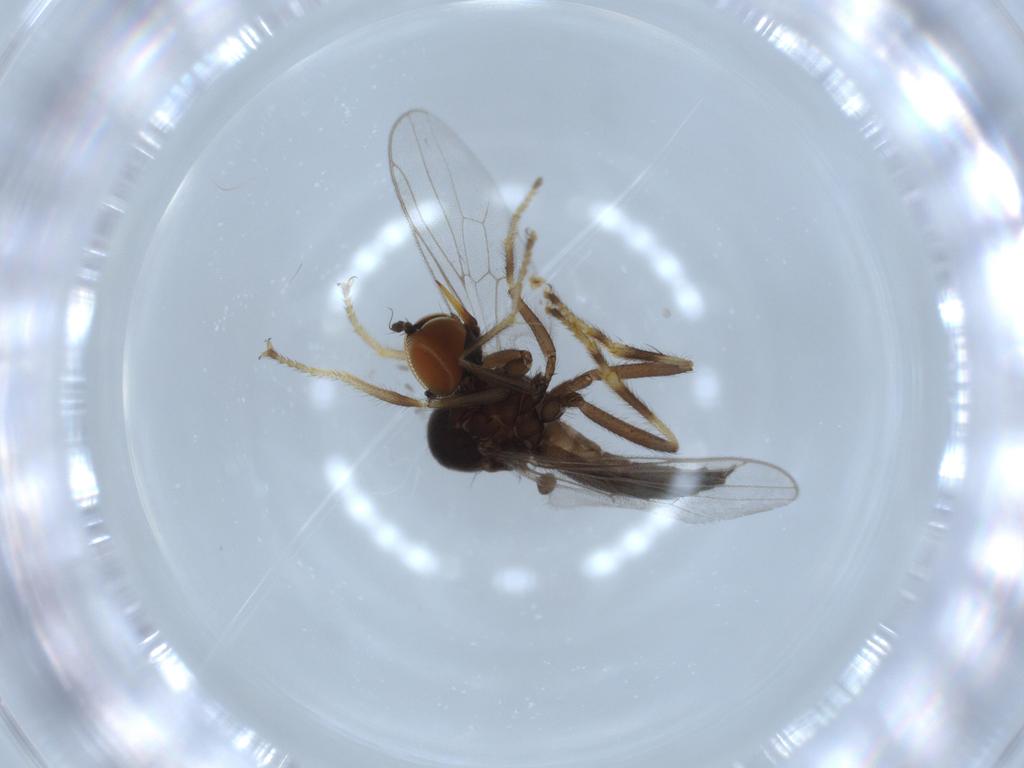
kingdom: Animalia
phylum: Arthropoda
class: Insecta
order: Diptera
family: Hybotidae
